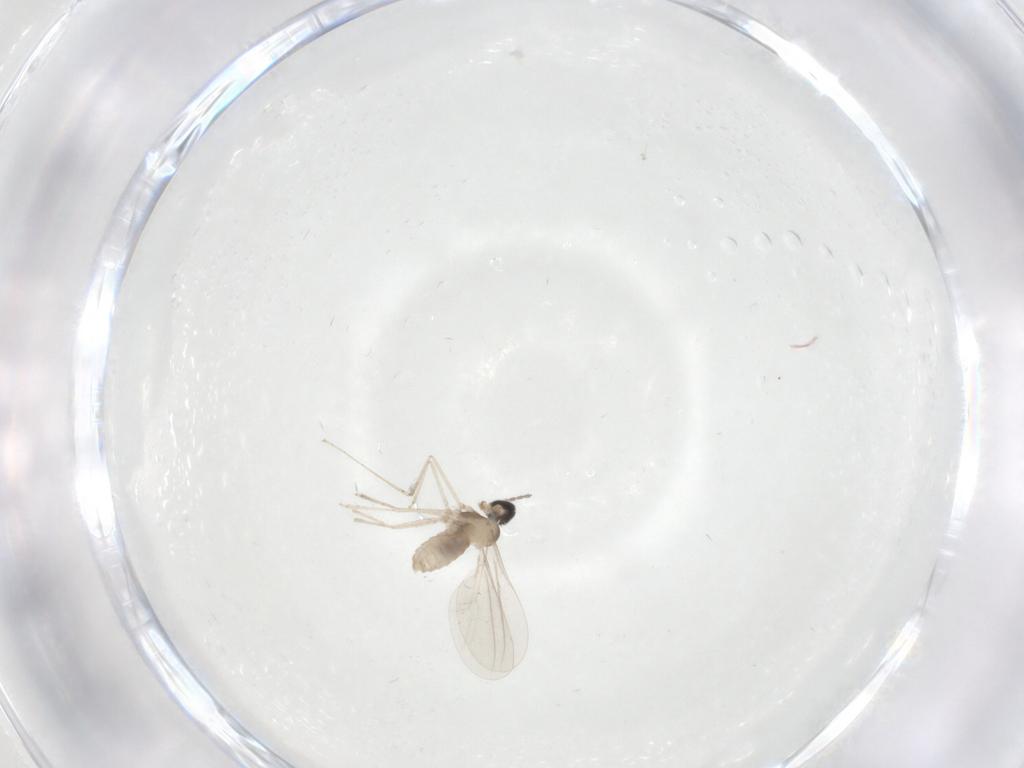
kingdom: Animalia
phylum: Arthropoda
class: Insecta
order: Diptera
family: Cecidomyiidae
